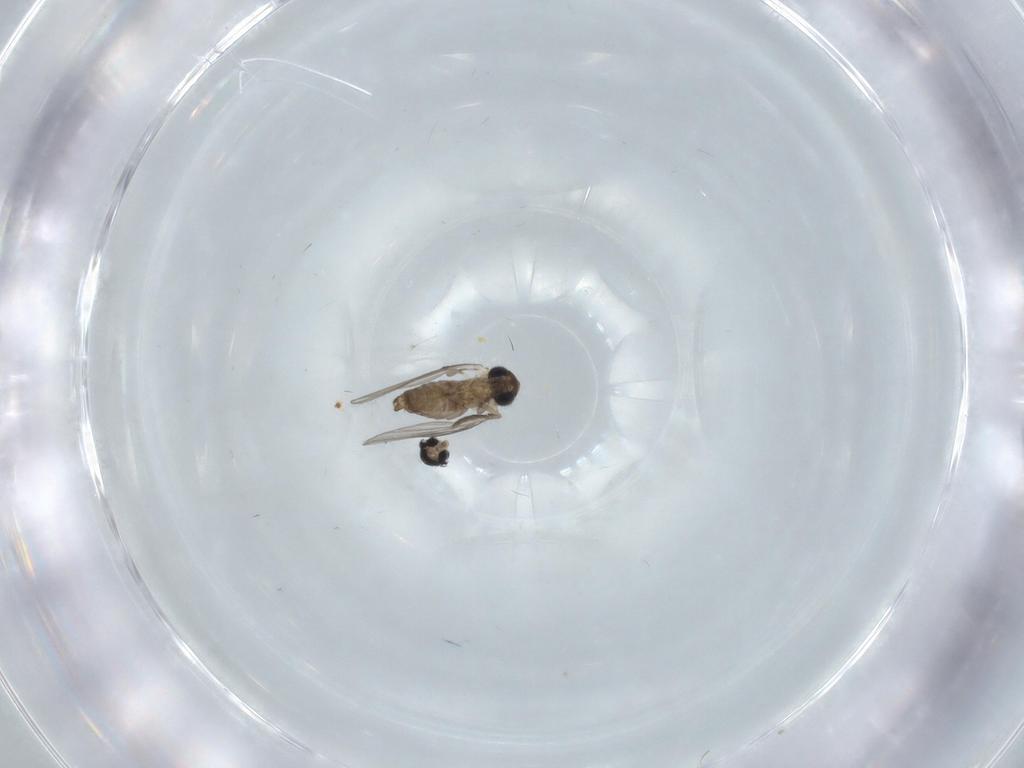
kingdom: Animalia
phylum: Arthropoda
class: Insecta
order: Diptera
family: Cecidomyiidae
